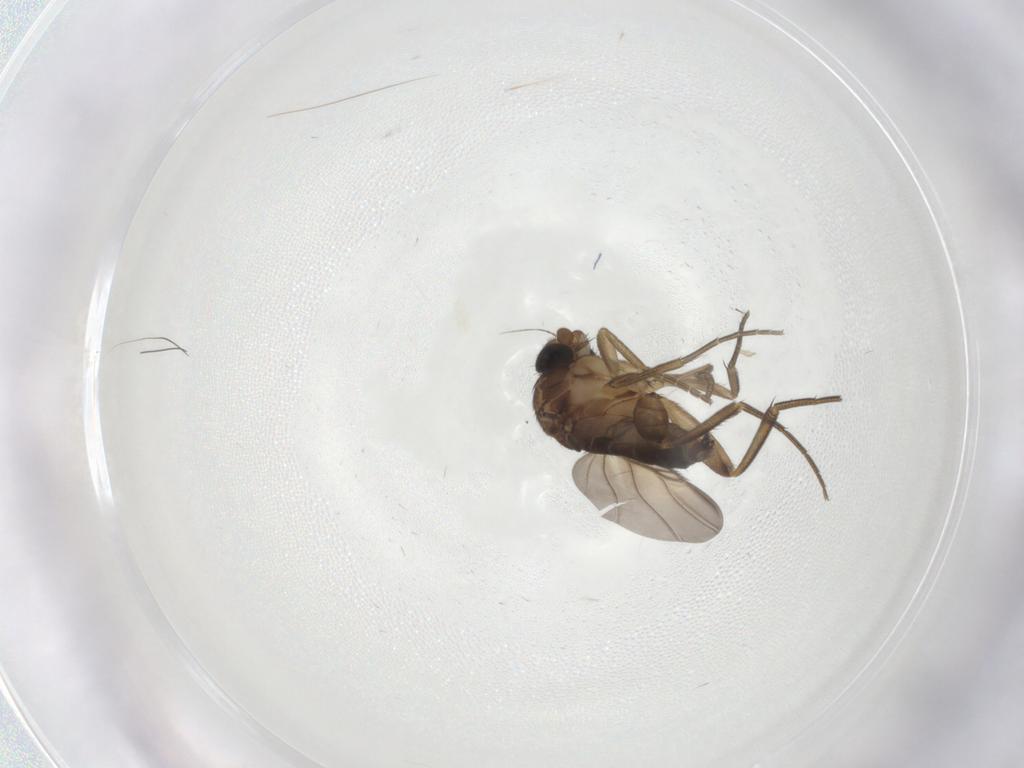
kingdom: Animalia
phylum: Arthropoda
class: Insecta
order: Diptera
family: Phoridae
